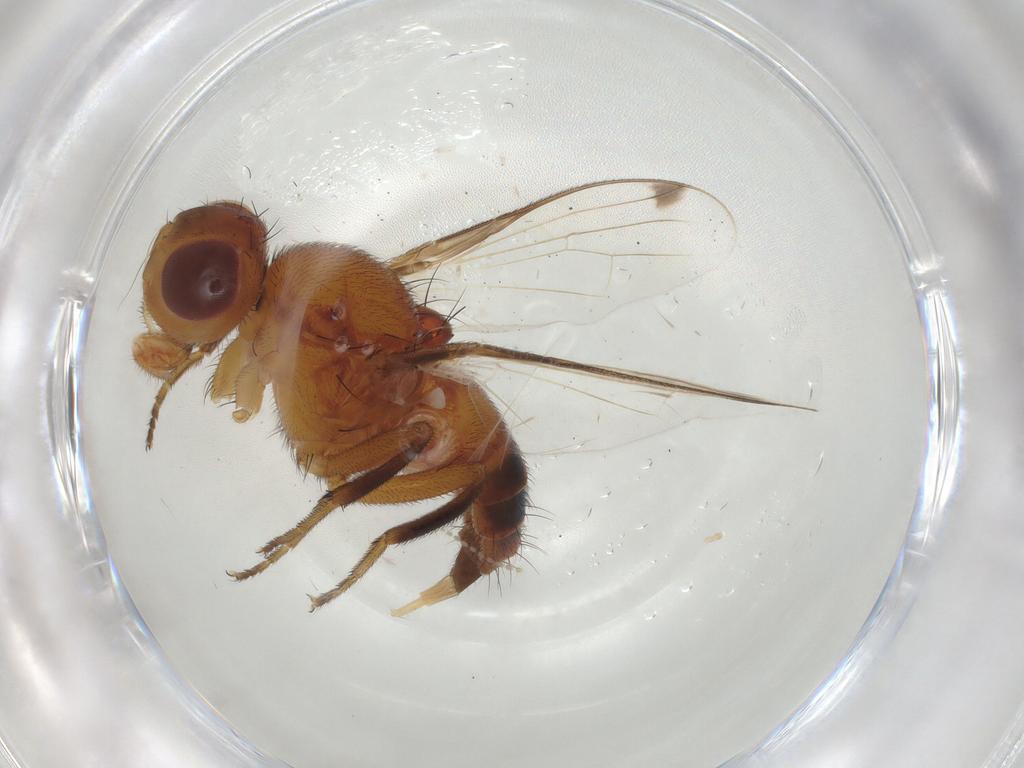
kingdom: Animalia
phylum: Arthropoda
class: Insecta
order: Diptera
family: Richardiidae
